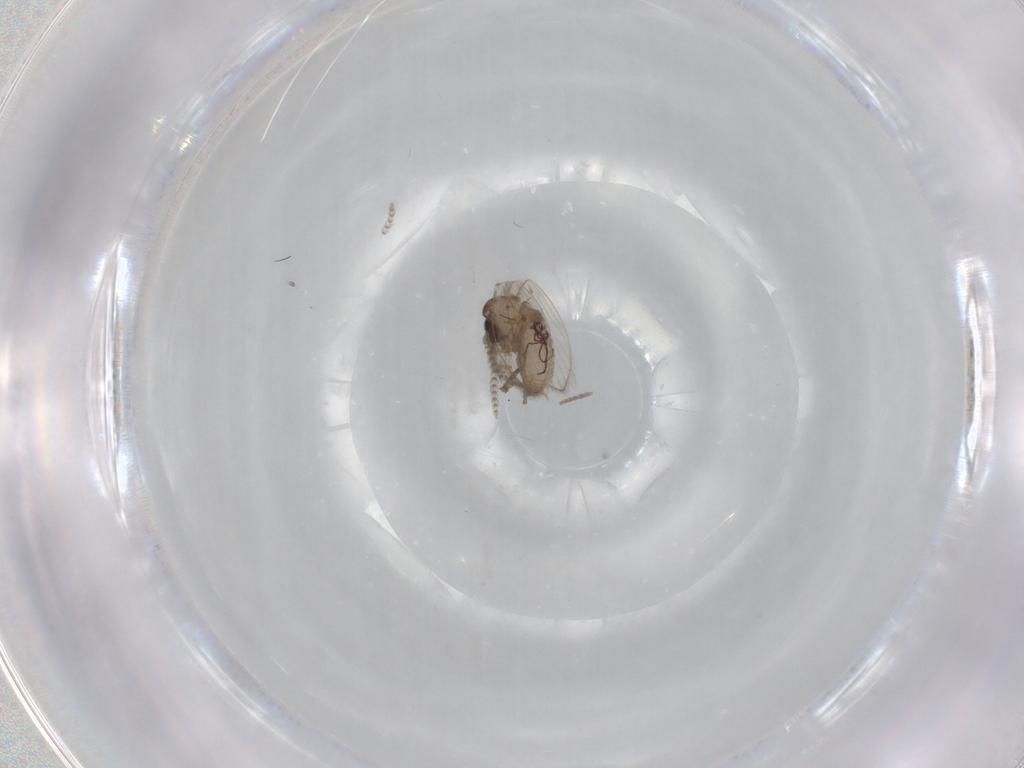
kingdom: Animalia
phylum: Arthropoda
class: Insecta
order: Diptera
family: Psychodidae
